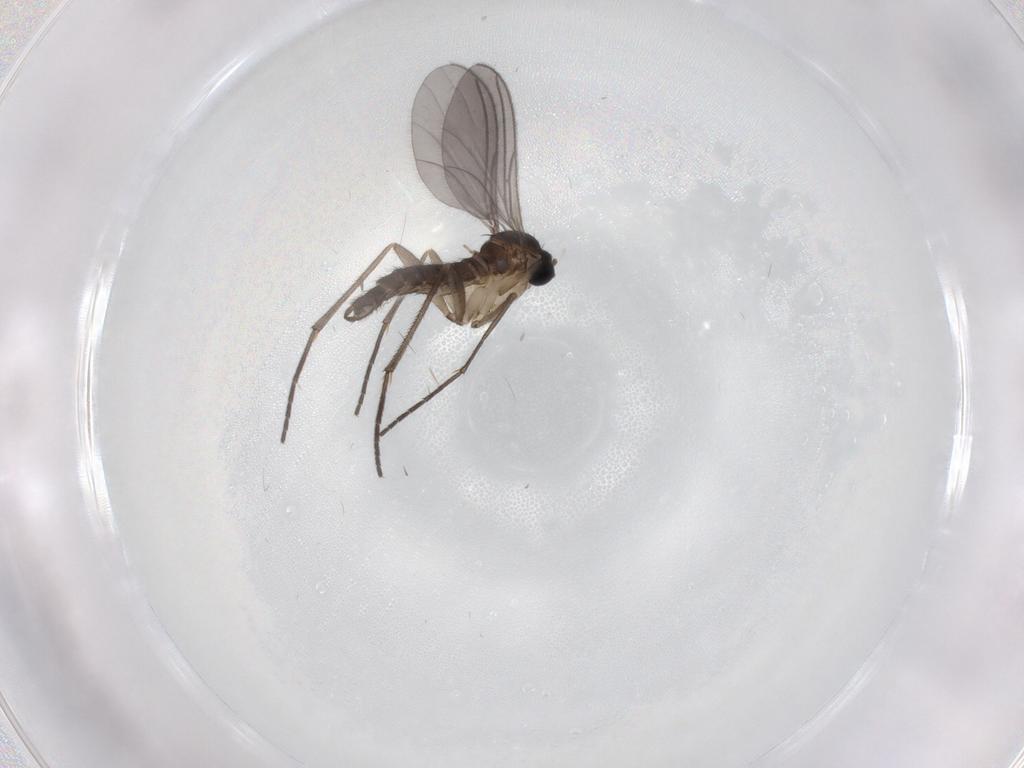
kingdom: Animalia
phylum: Arthropoda
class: Insecta
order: Diptera
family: Sciaridae
